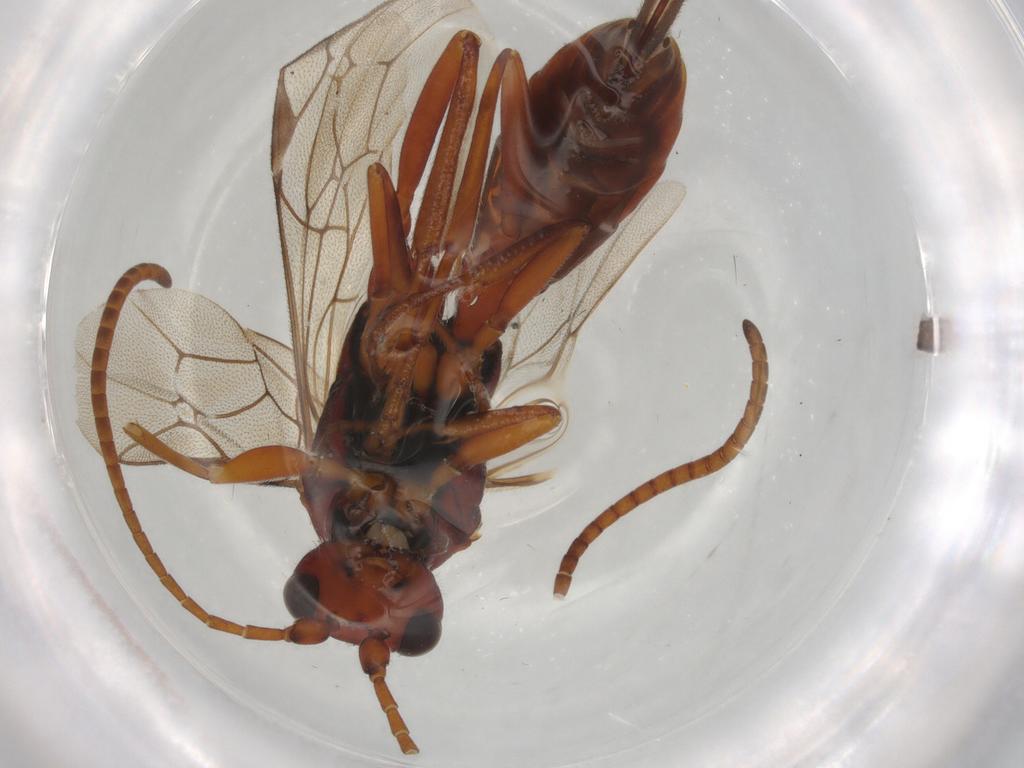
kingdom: Animalia
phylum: Arthropoda
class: Insecta
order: Hymenoptera
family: Ichneumonidae
